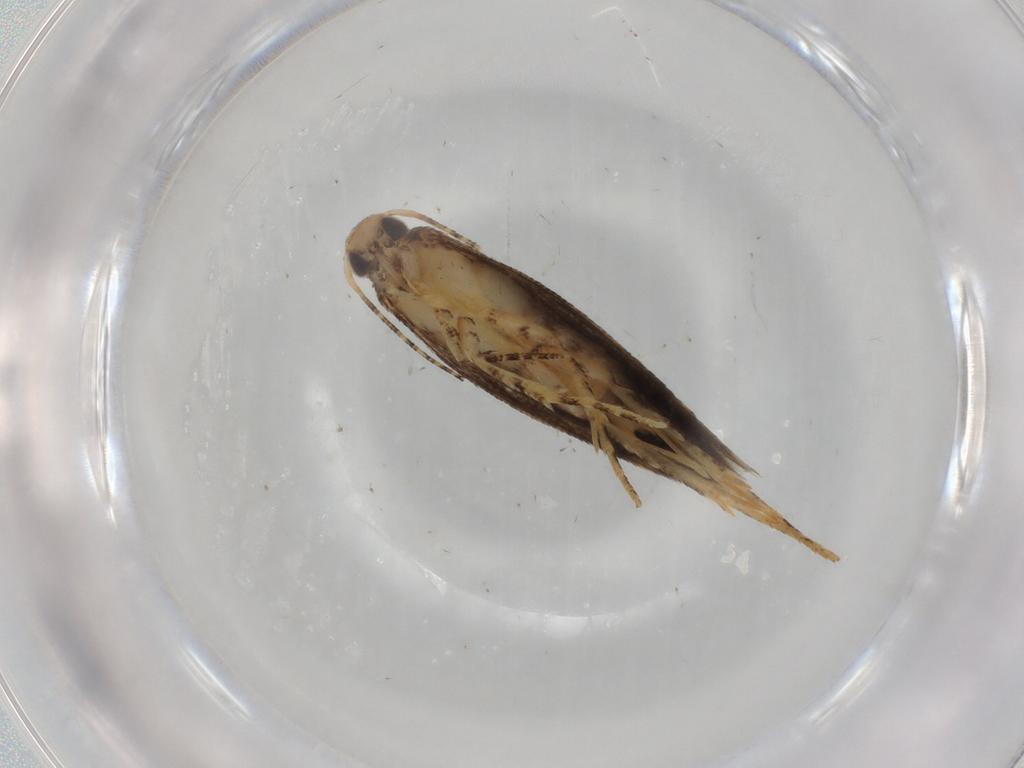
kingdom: Animalia
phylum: Arthropoda
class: Insecta
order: Lepidoptera
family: Gelechiidae
